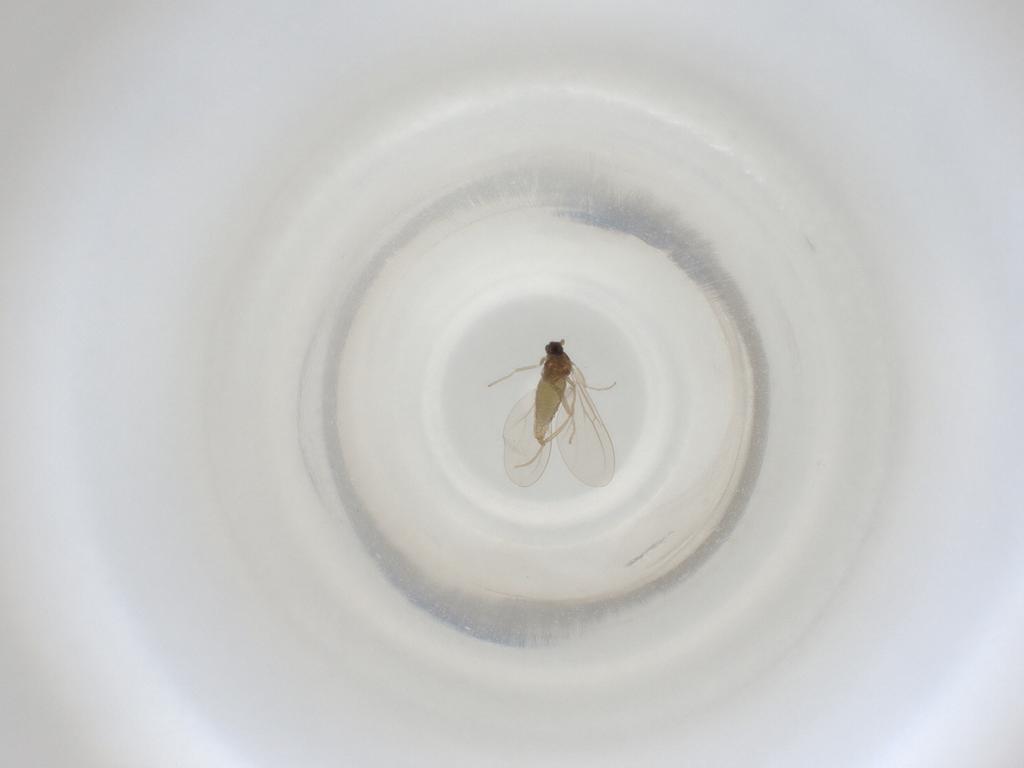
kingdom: Animalia
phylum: Arthropoda
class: Insecta
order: Diptera
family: Cecidomyiidae
